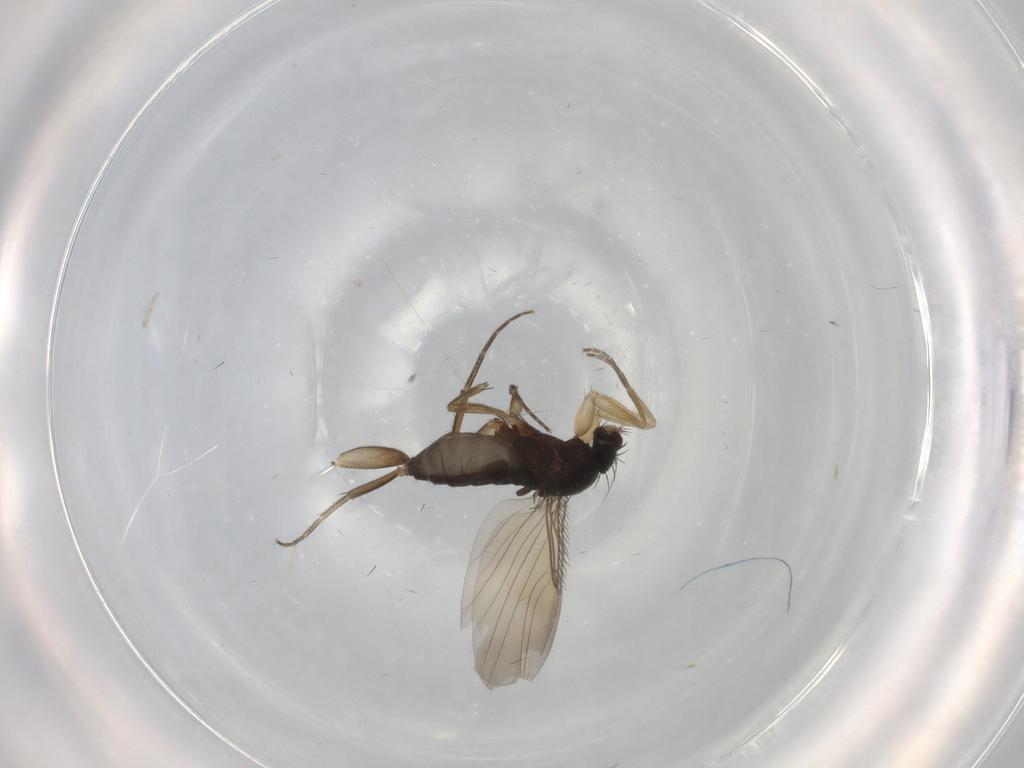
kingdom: Animalia
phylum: Arthropoda
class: Insecta
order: Diptera
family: Phoridae
